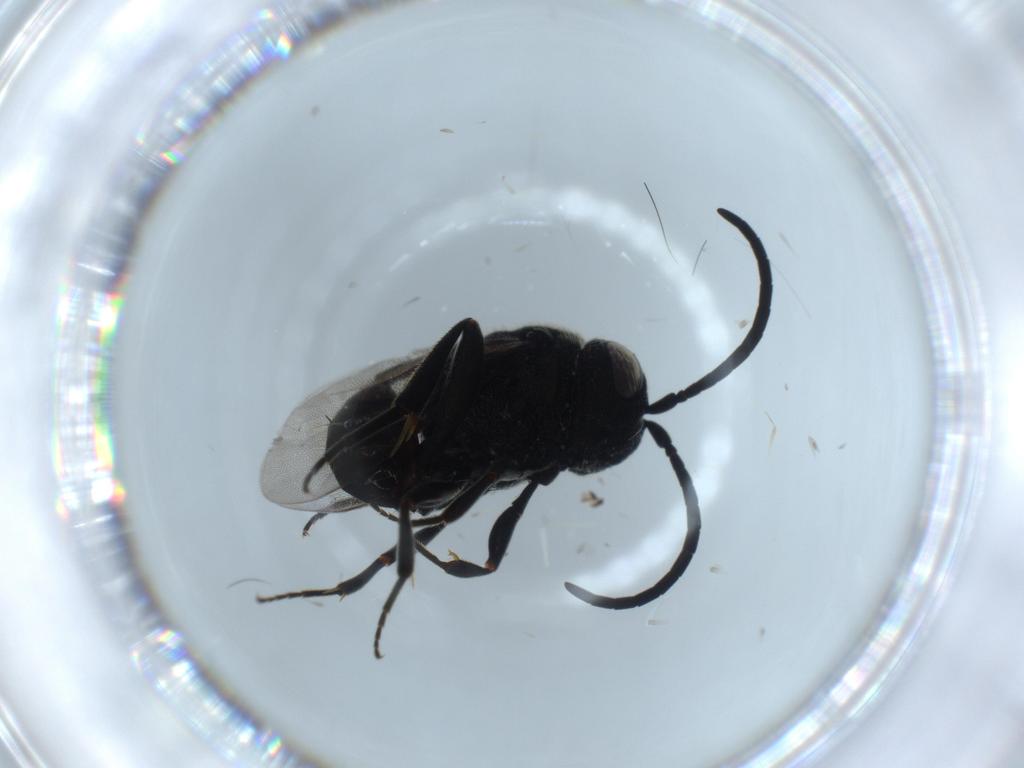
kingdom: Animalia
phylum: Arthropoda
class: Insecta
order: Hymenoptera
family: Evaniidae
